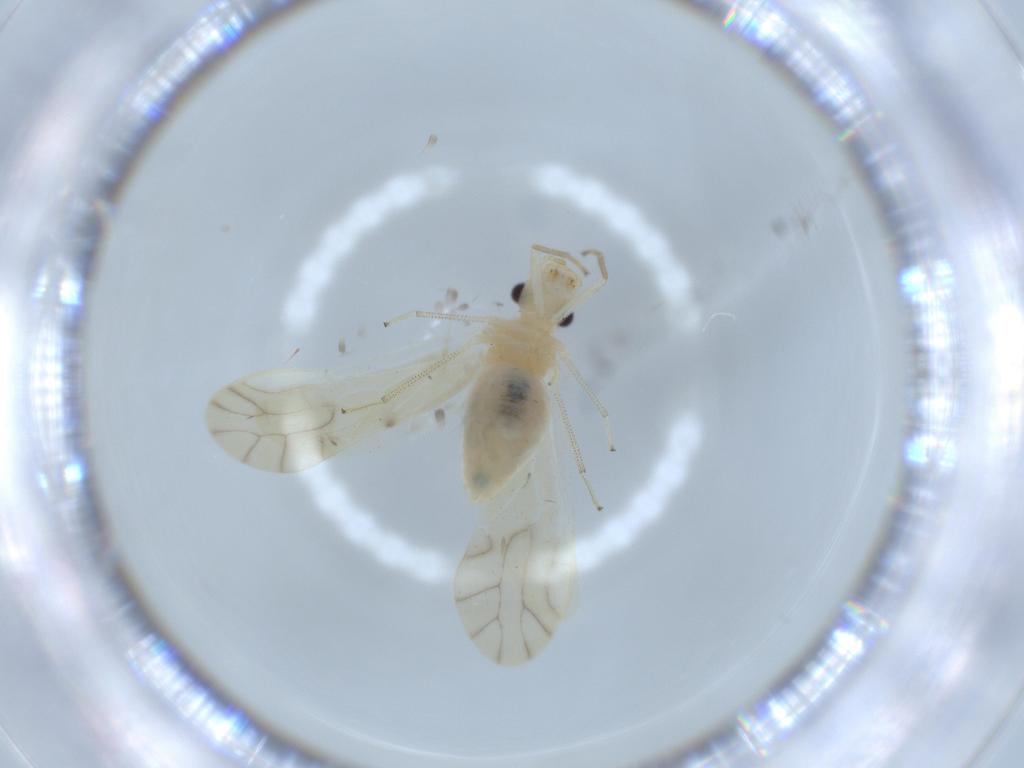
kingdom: Animalia
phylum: Arthropoda
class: Insecta
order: Psocodea
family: Caeciliusidae
